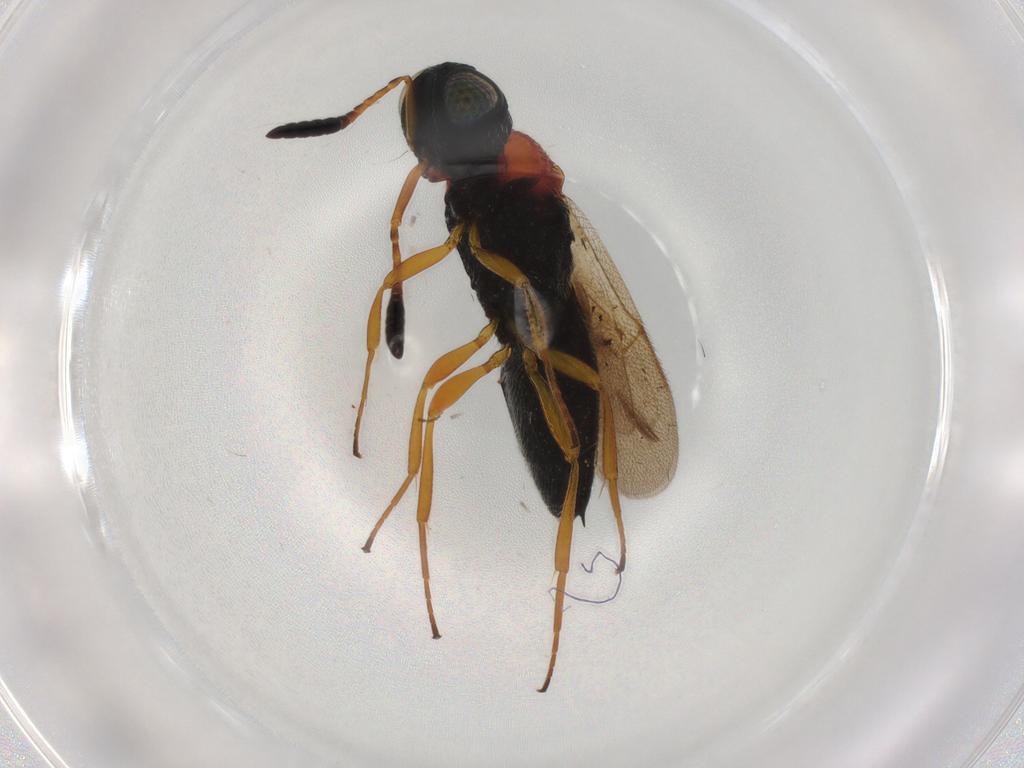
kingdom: Animalia
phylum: Arthropoda
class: Insecta
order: Hymenoptera
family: Scelionidae
